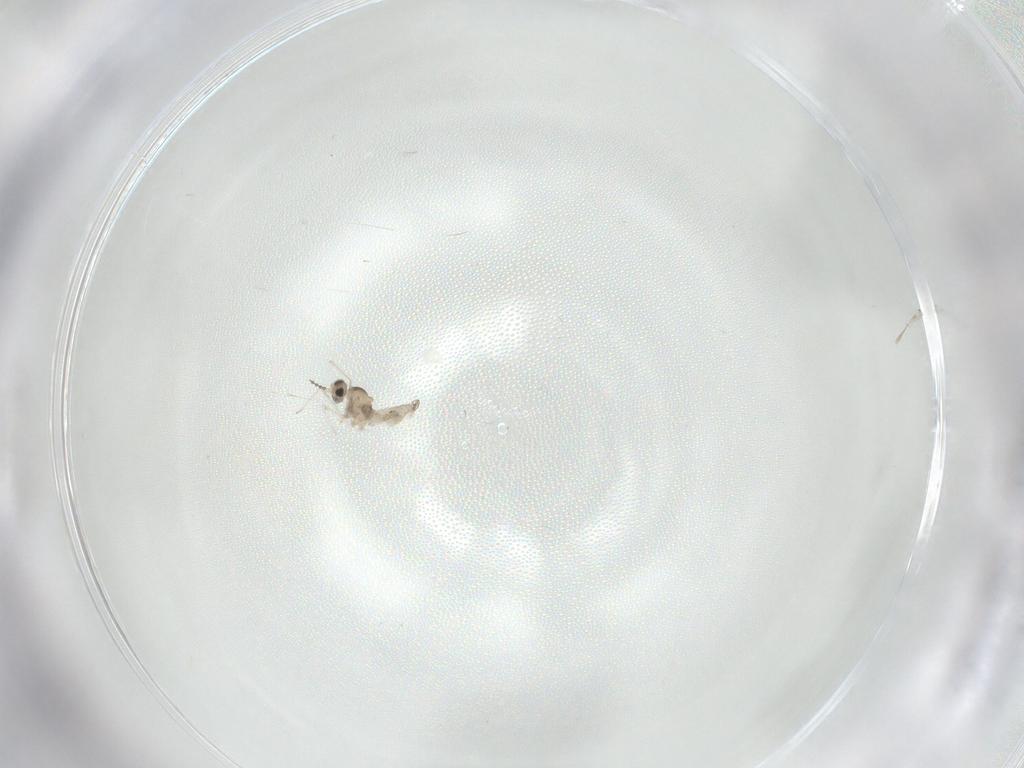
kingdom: Animalia
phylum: Arthropoda
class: Insecta
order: Diptera
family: Cecidomyiidae
